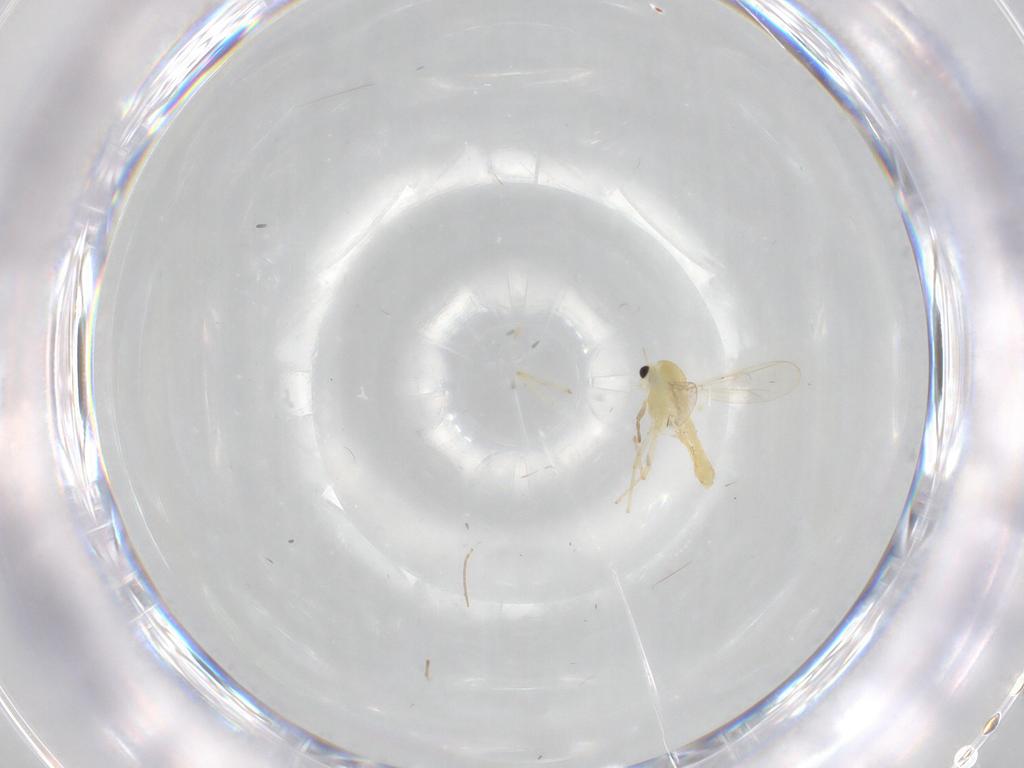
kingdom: Animalia
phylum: Arthropoda
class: Insecta
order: Diptera
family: Chironomidae
